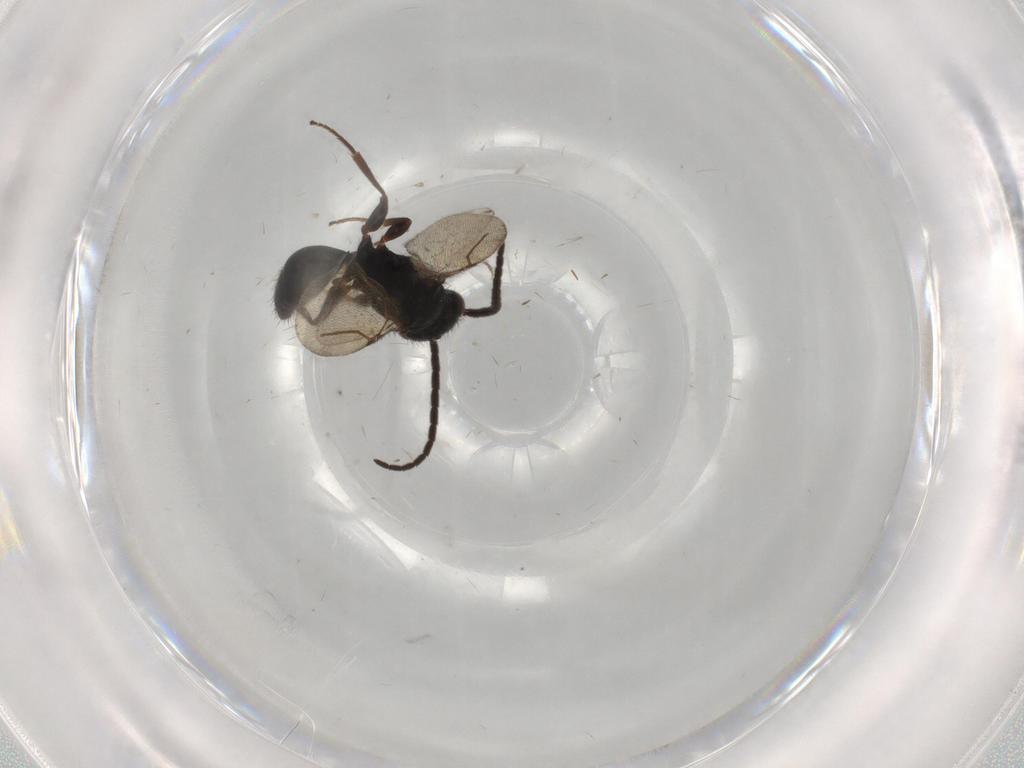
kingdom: Animalia
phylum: Arthropoda
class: Insecta
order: Hymenoptera
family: Bethylidae
